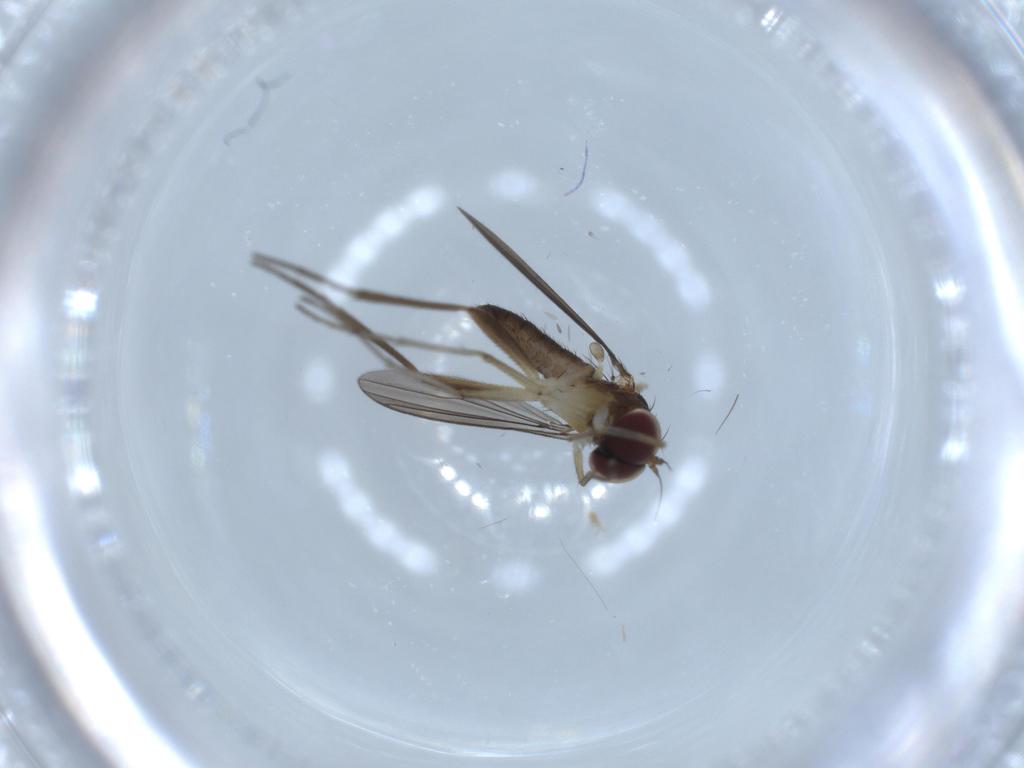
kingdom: Animalia
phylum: Arthropoda
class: Insecta
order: Diptera
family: Dolichopodidae
